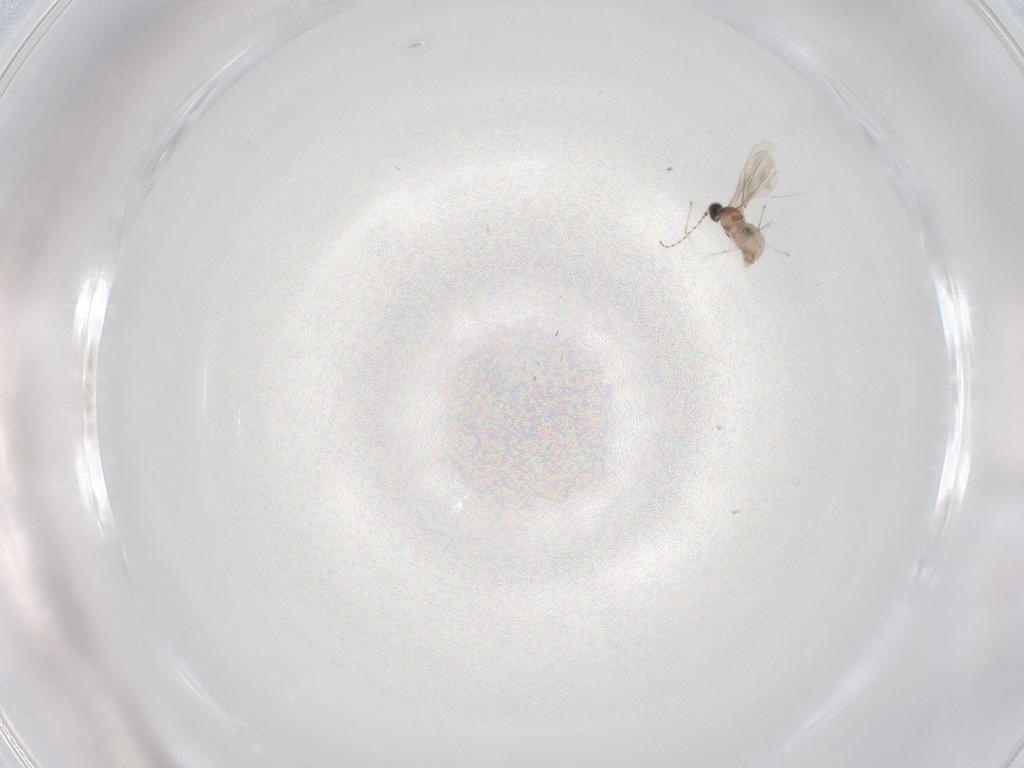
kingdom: Animalia
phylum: Arthropoda
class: Insecta
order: Diptera
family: Cecidomyiidae
